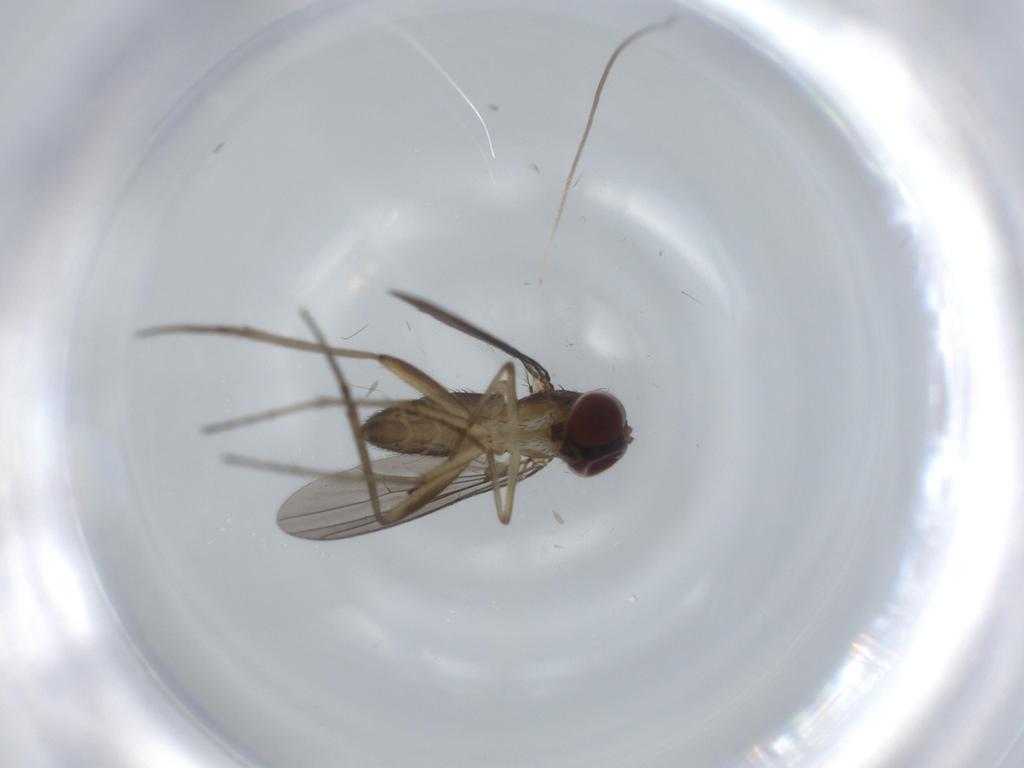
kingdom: Animalia
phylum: Arthropoda
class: Insecta
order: Diptera
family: Dolichopodidae
